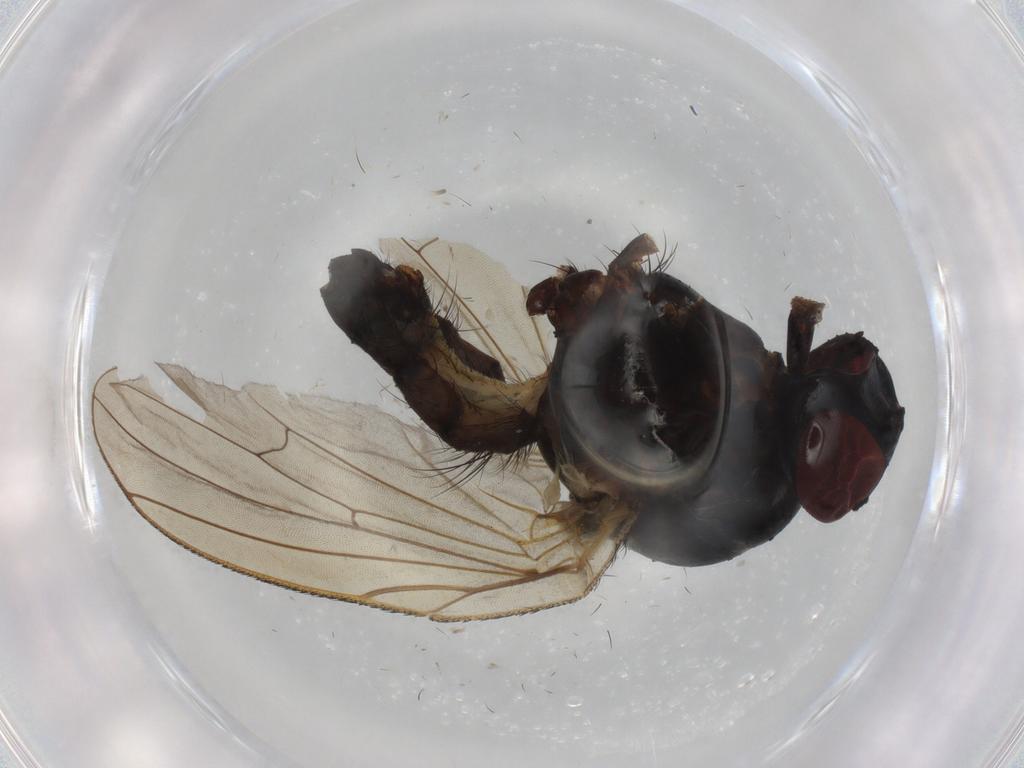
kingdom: Animalia
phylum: Arthropoda
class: Insecta
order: Diptera
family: Anthomyiidae
